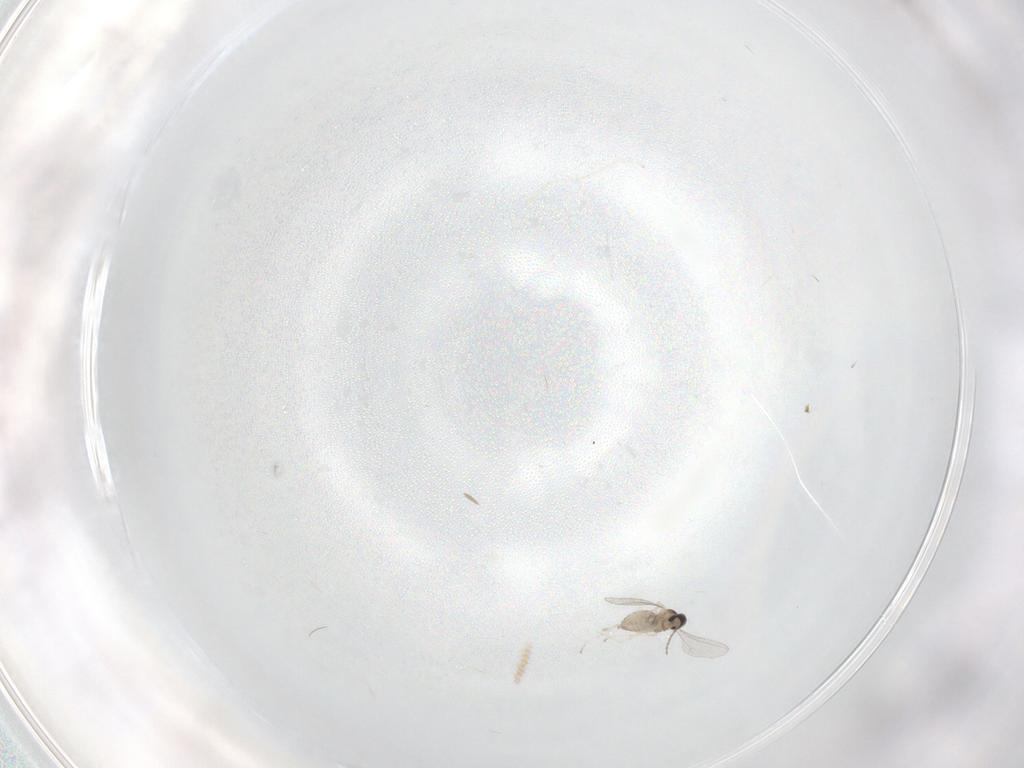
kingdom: Animalia
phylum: Arthropoda
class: Insecta
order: Diptera
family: Cecidomyiidae
